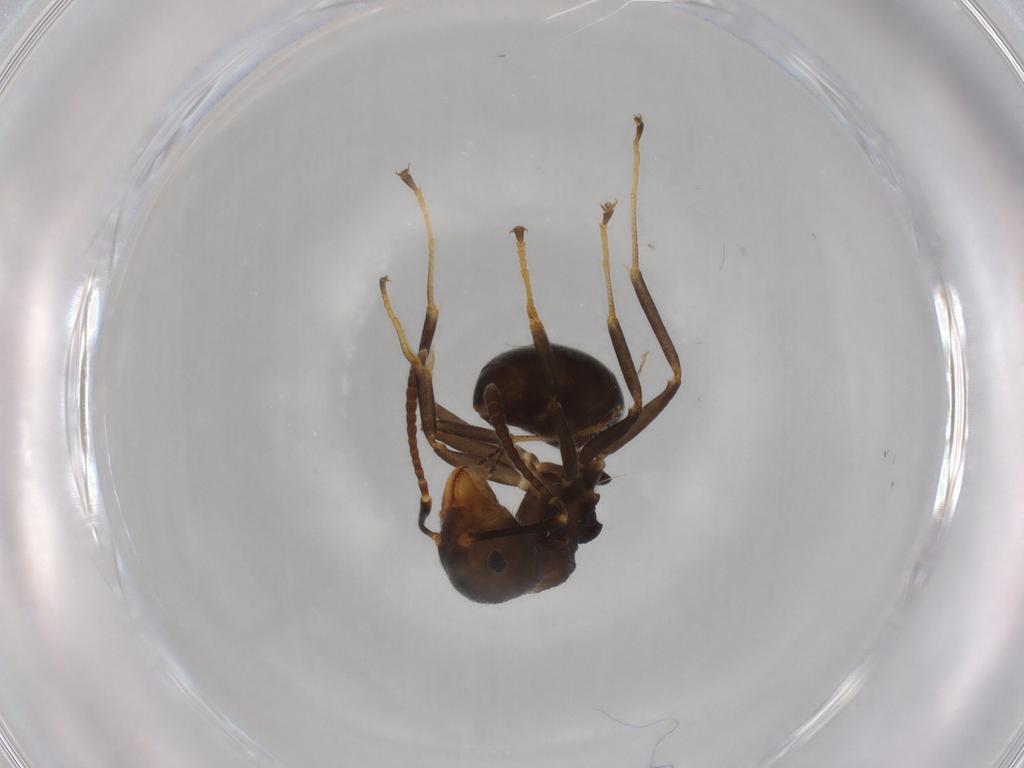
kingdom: Animalia
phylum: Arthropoda
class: Insecta
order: Hymenoptera
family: Formicidae
